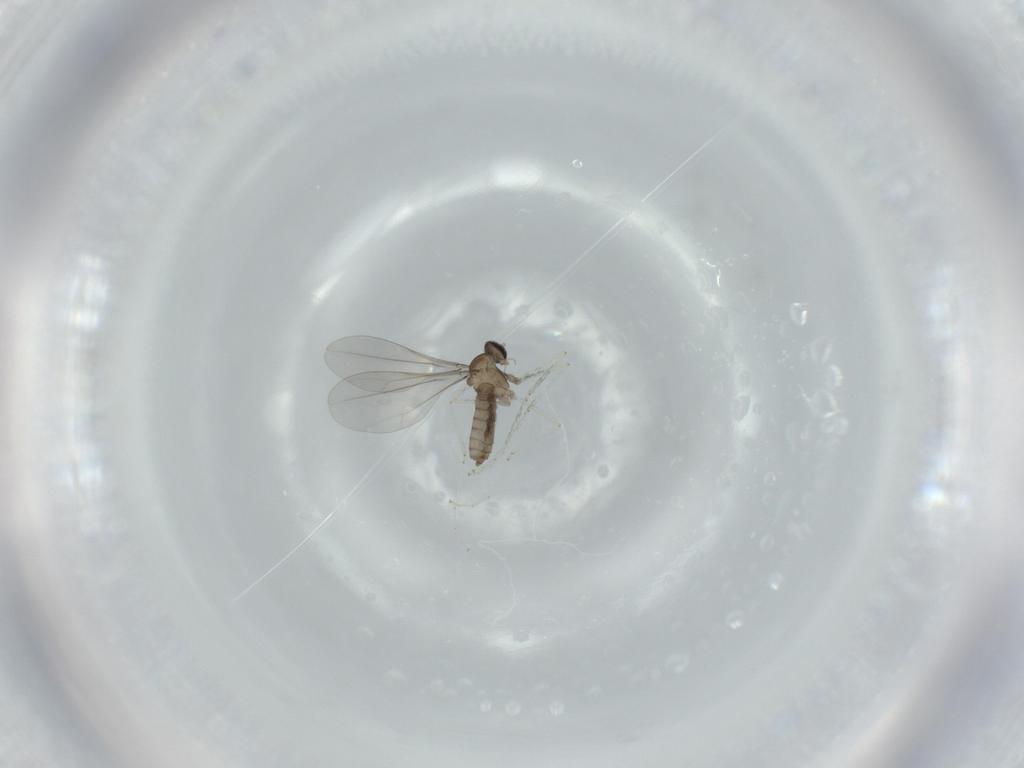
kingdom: Animalia
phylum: Arthropoda
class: Insecta
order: Diptera
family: Cecidomyiidae
